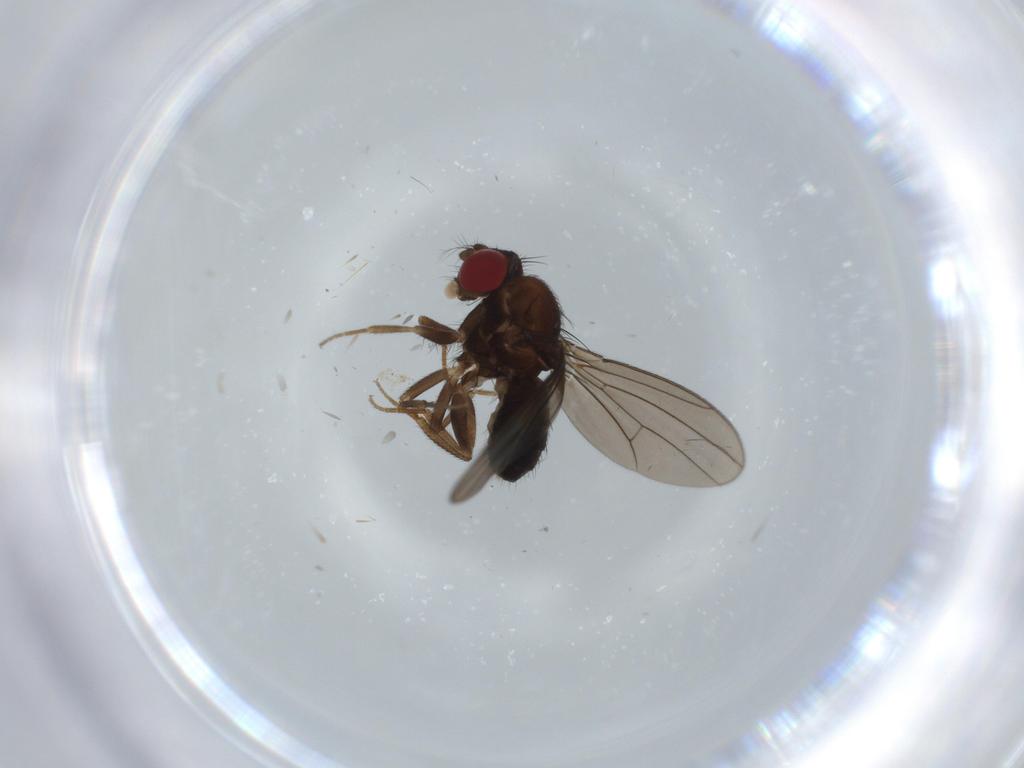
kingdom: Animalia
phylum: Arthropoda
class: Insecta
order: Diptera
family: Drosophilidae
